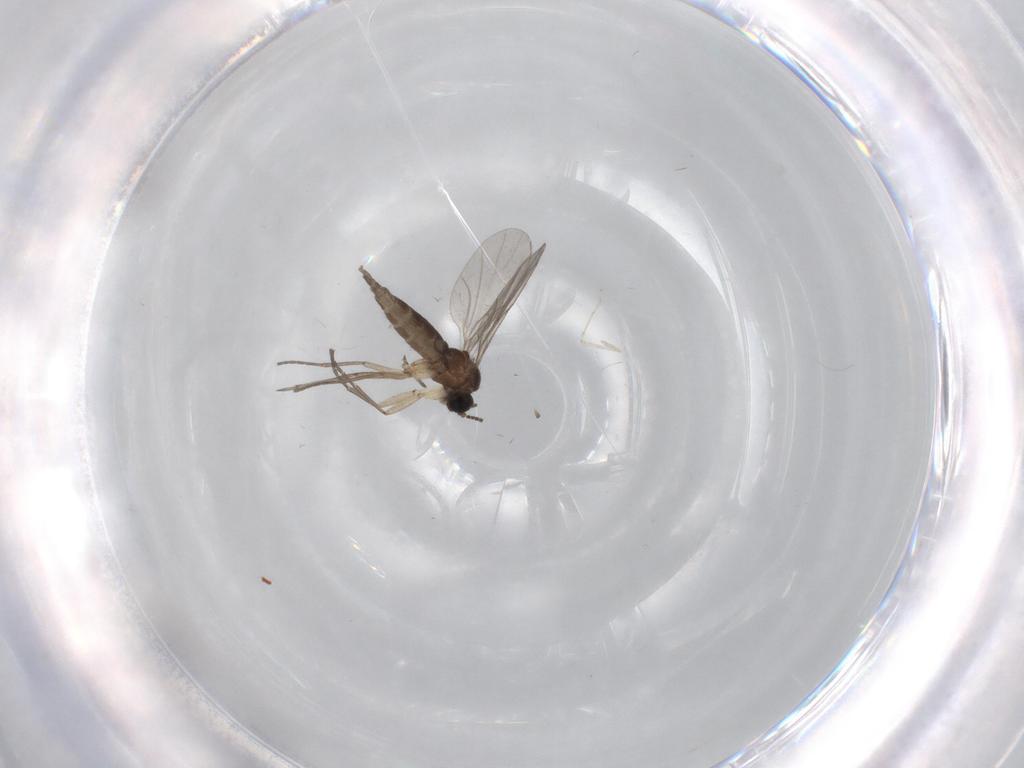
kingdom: Animalia
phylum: Arthropoda
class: Insecta
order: Diptera
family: Sciaridae
